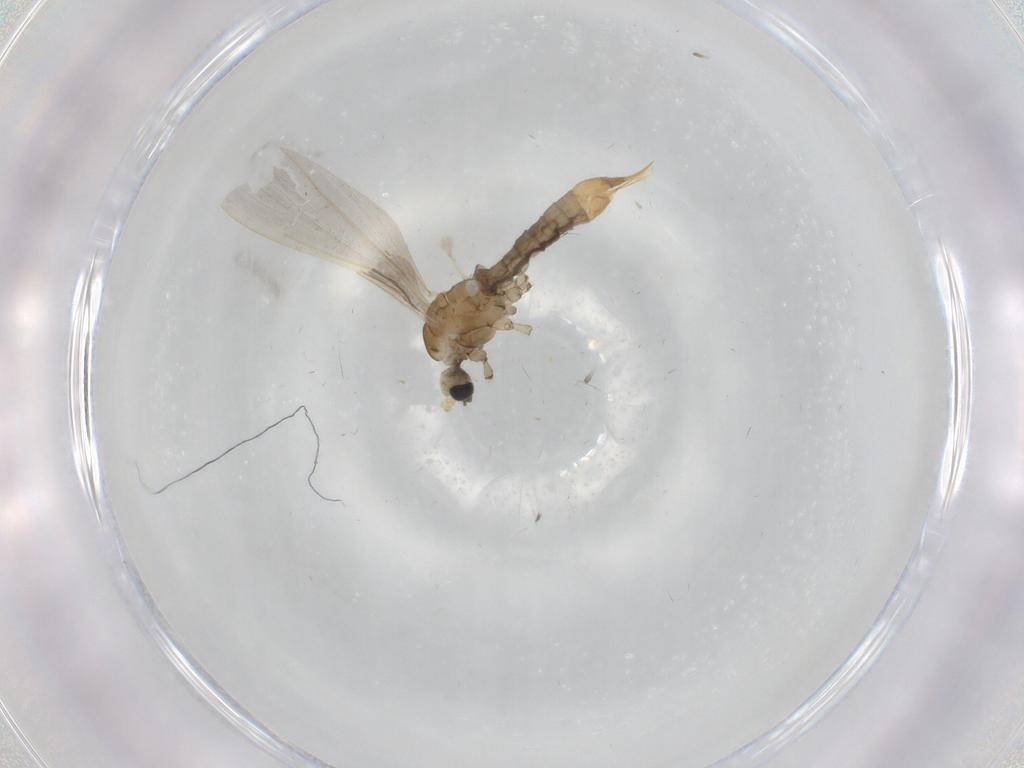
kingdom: Animalia
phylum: Arthropoda
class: Insecta
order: Diptera
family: Limoniidae
